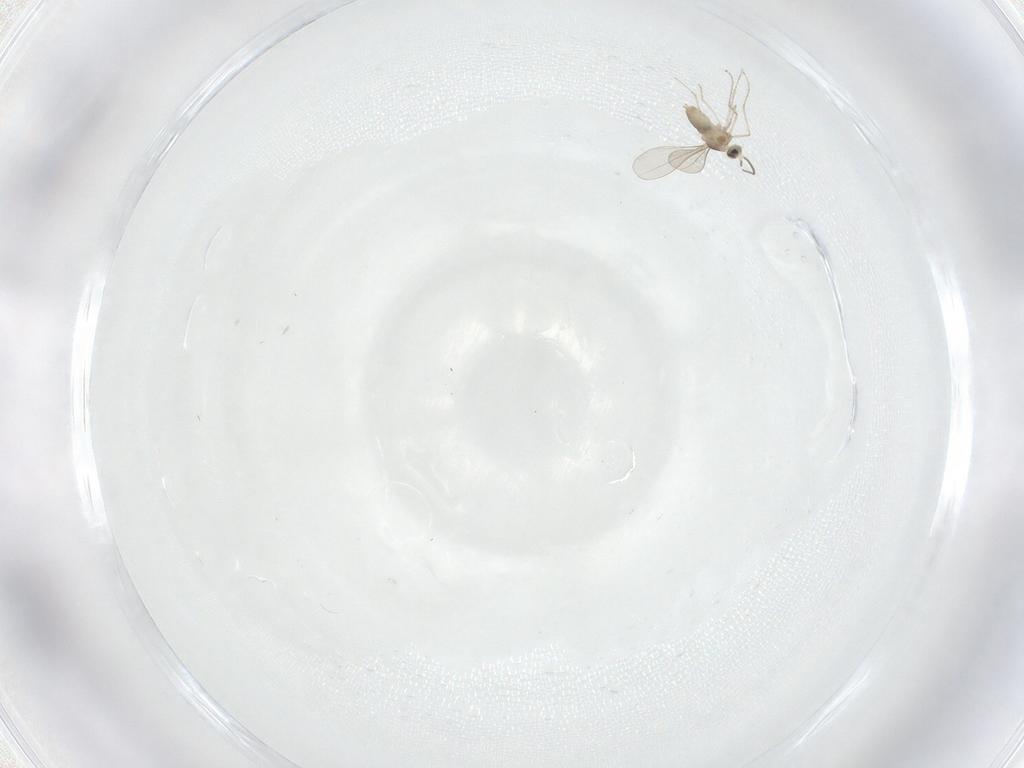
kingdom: Animalia
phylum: Arthropoda
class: Insecta
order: Diptera
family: Cecidomyiidae
